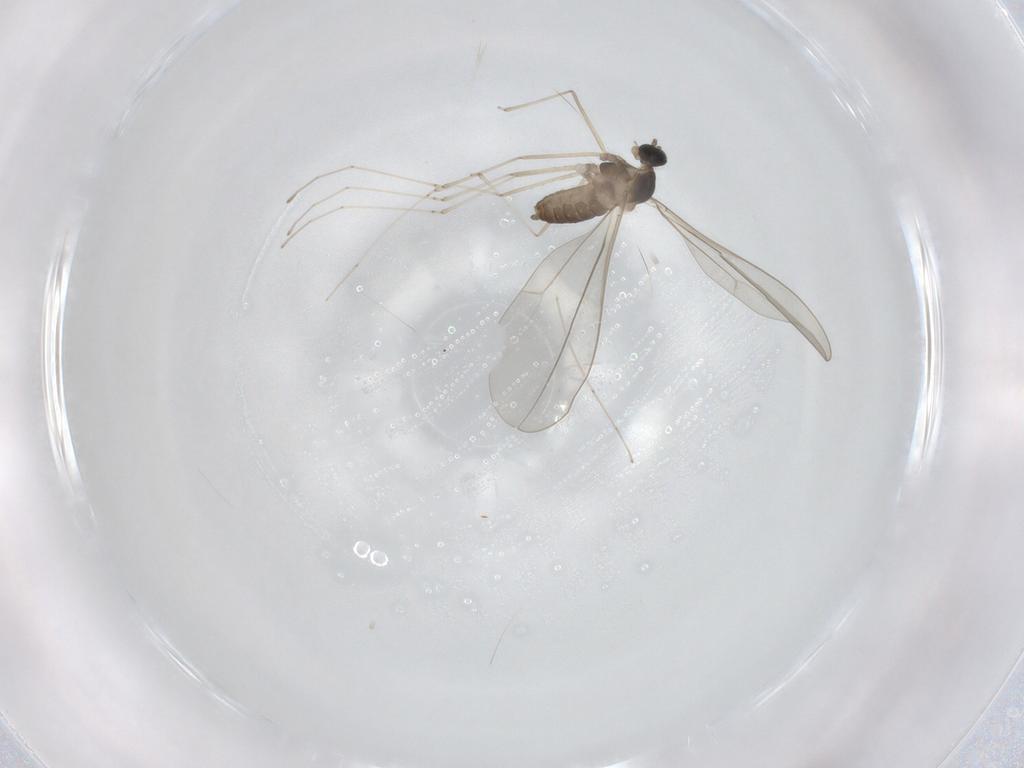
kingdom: Animalia
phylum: Arthropoda
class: Insecta
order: Diptera
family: Cecidomyiidae
